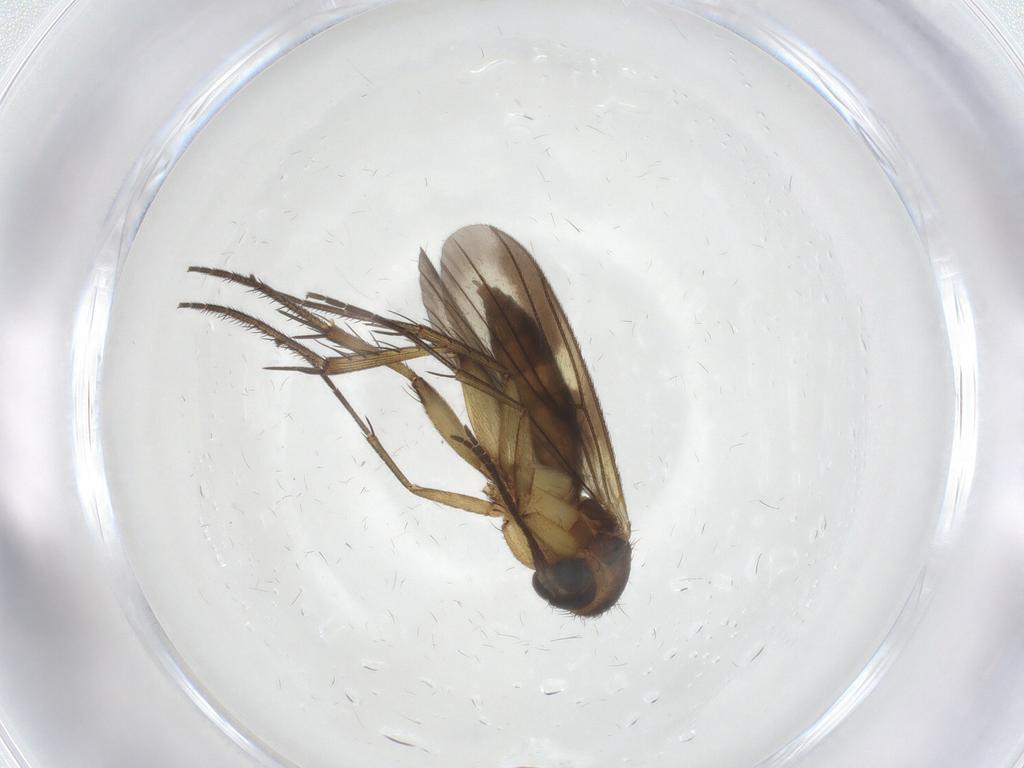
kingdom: Animalia
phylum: Arthropoda
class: Insecta
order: Diptera
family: Mycetophilidae
